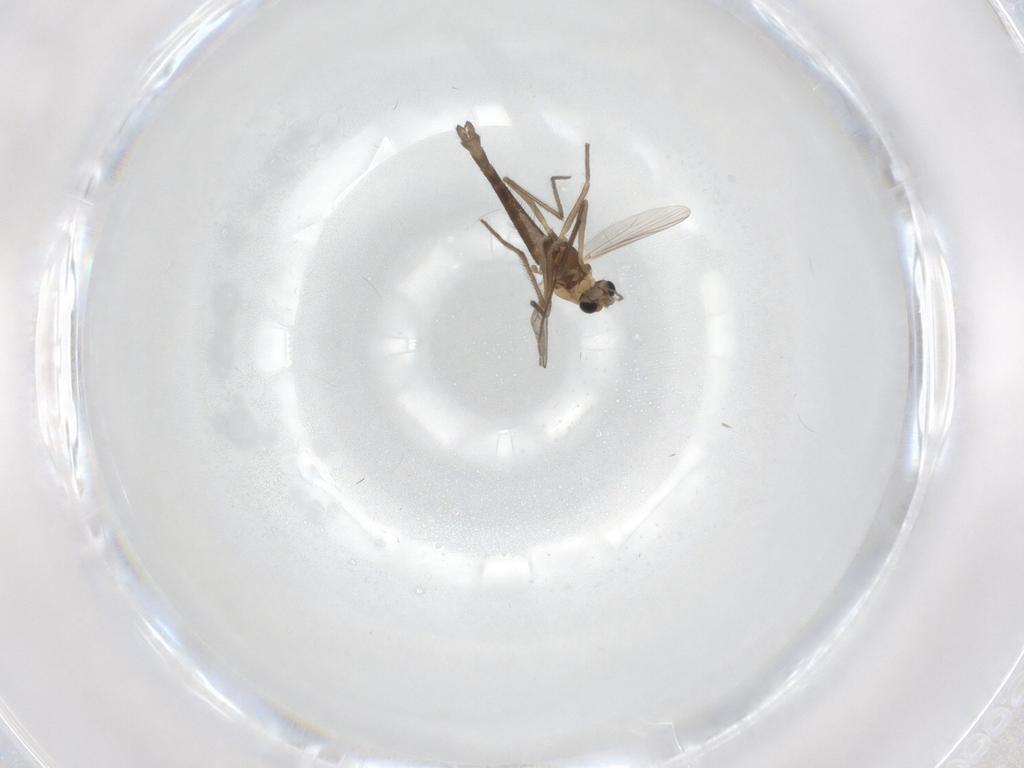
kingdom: Animalia
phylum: Arthropoda
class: Insecta
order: Diptera
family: Chironomidae
